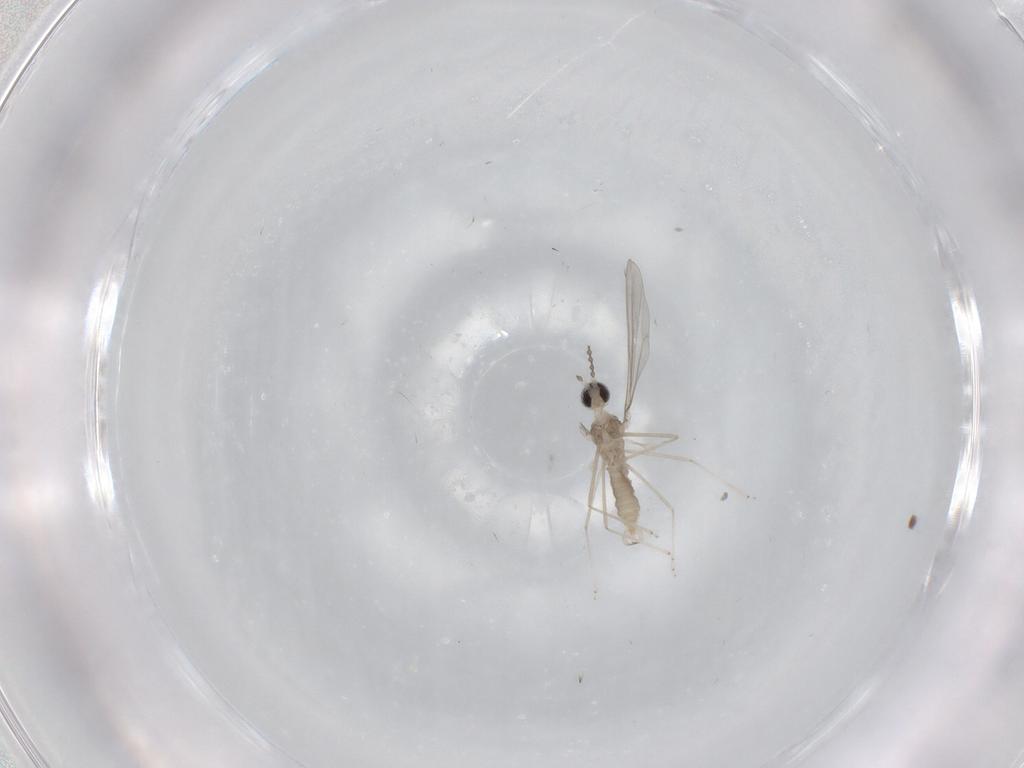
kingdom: Animalia
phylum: Arthropoda
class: Insecta
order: Diptera
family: Cecidomyiidae
